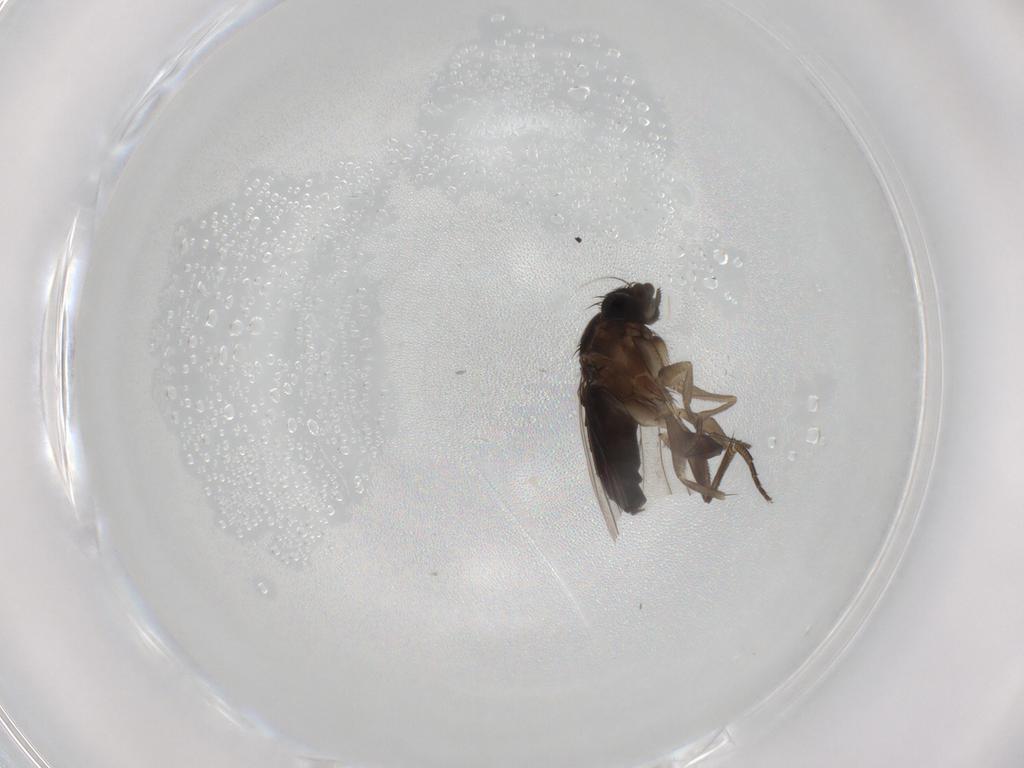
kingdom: Animalia
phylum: Arthropoda
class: Insecta
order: Diptera
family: Phoridae
